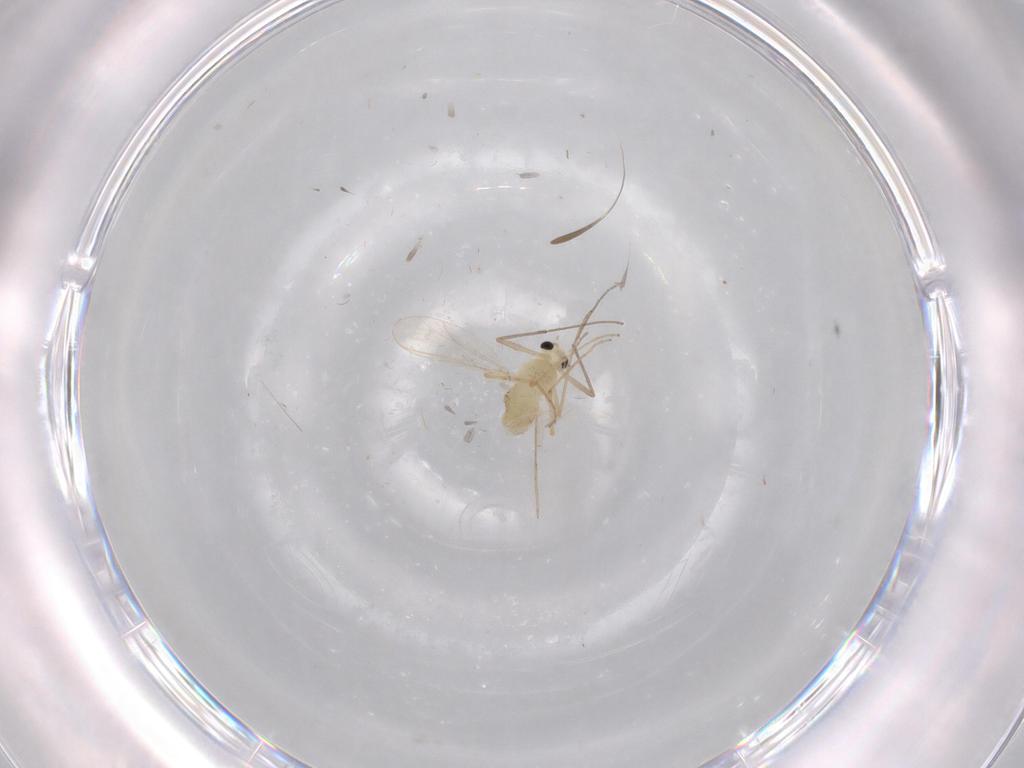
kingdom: Animalia
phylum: Arthropoda
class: Insecta
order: Diptera
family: Chironomidae
